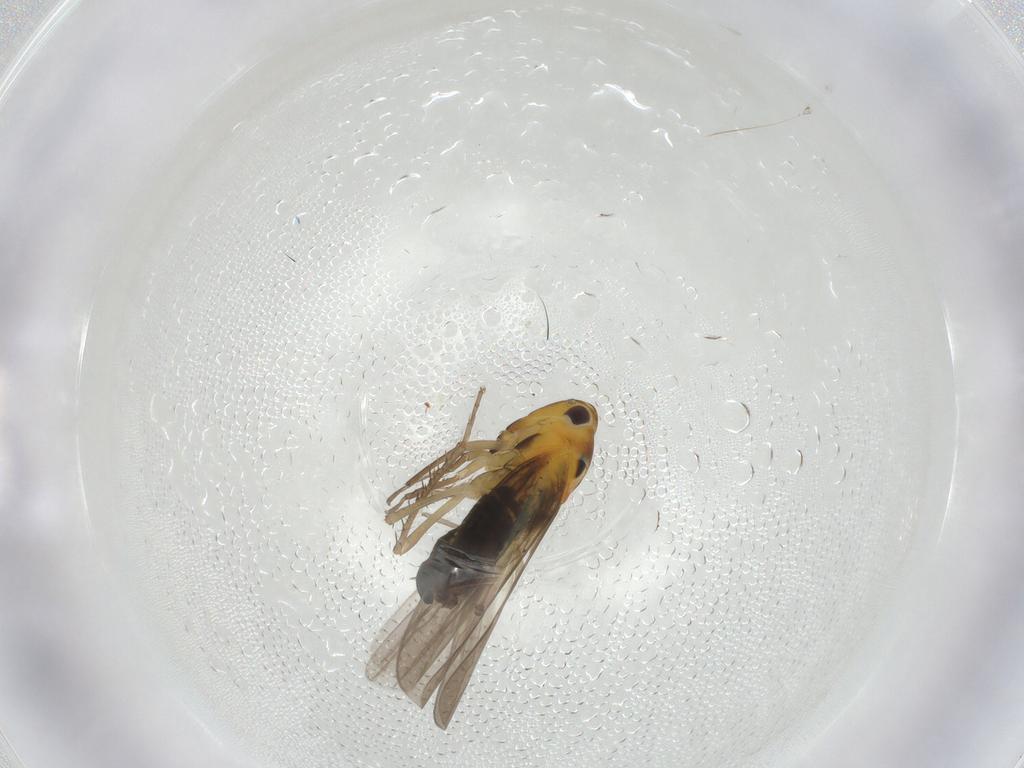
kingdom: Animalia
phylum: Arthropoda
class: Insecta
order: Hemiptera
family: Cicadellidae
